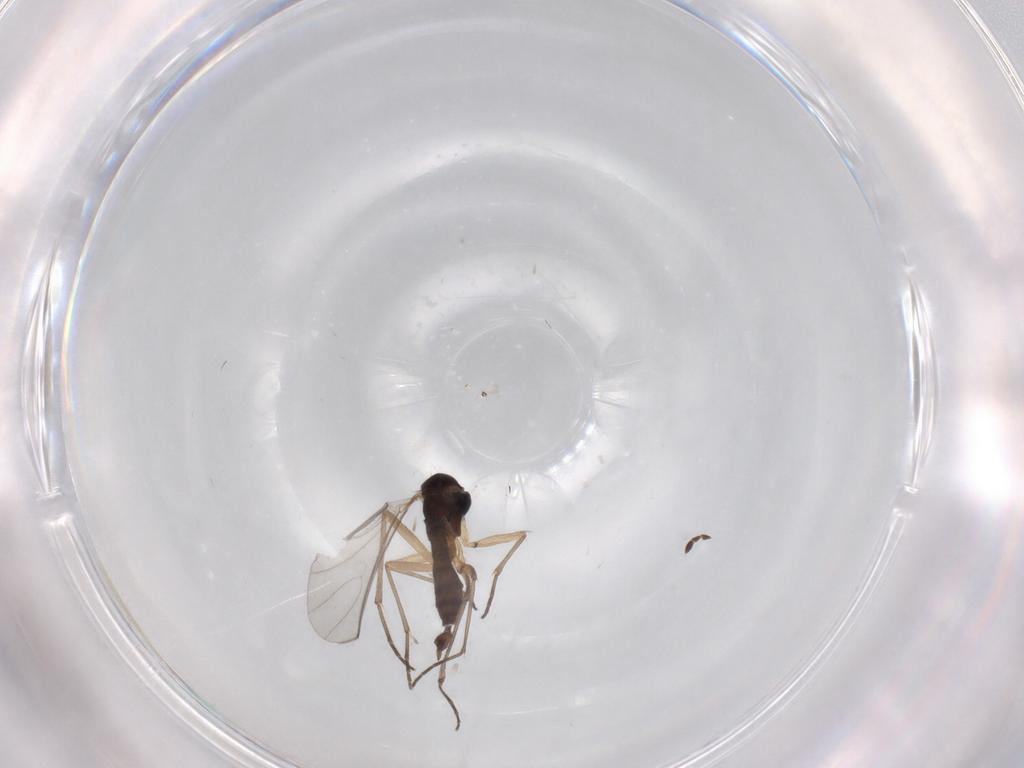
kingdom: Animalia
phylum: Arthropoda
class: Insecta
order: Diptera
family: Sciaridae
